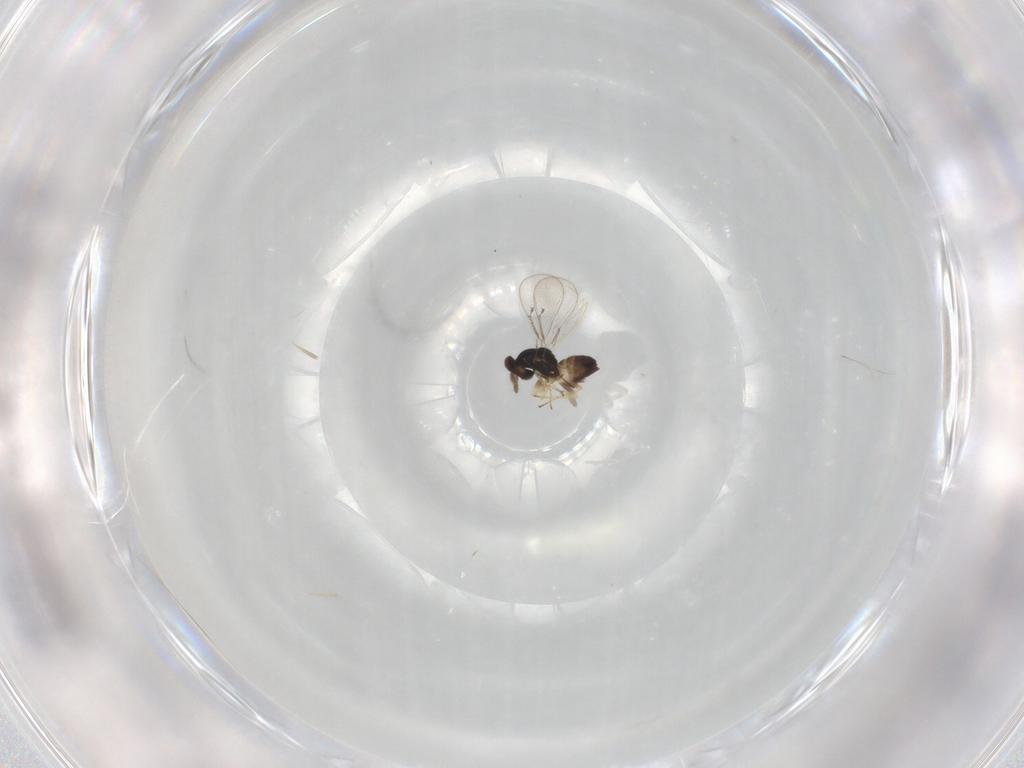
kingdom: Animalia
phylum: Arthropoda
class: Insecta
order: Hymenoptera
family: Eulophidae
